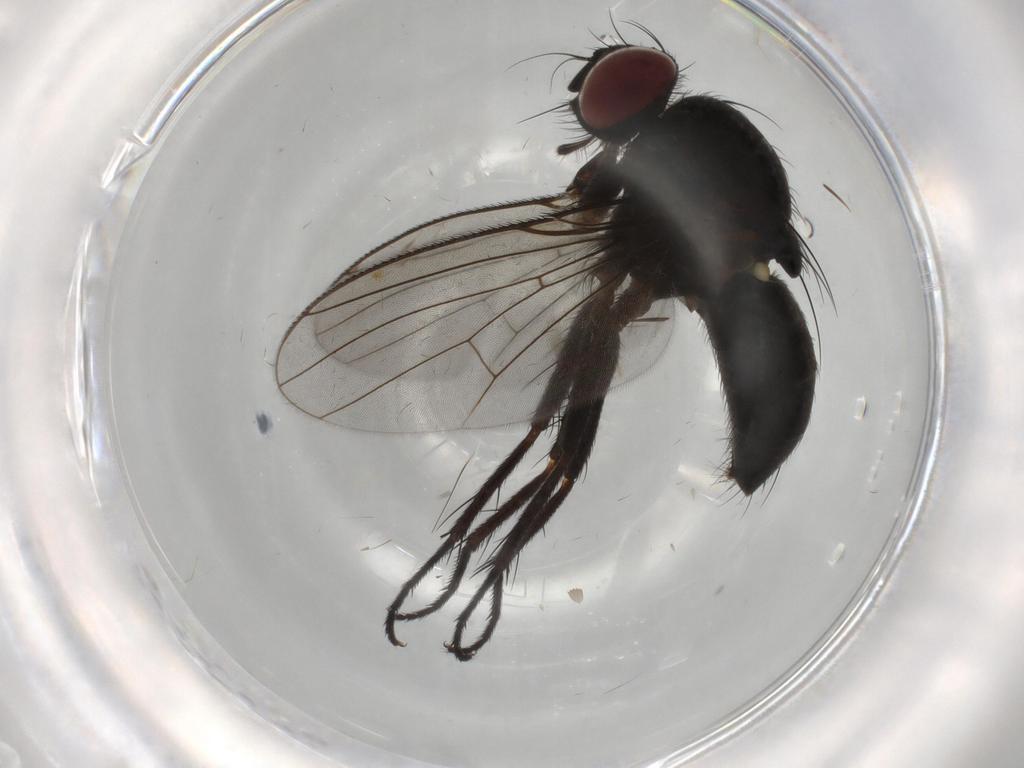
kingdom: Animalia
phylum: Arthropoda
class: Insecta
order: Diptera
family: Muscidae
